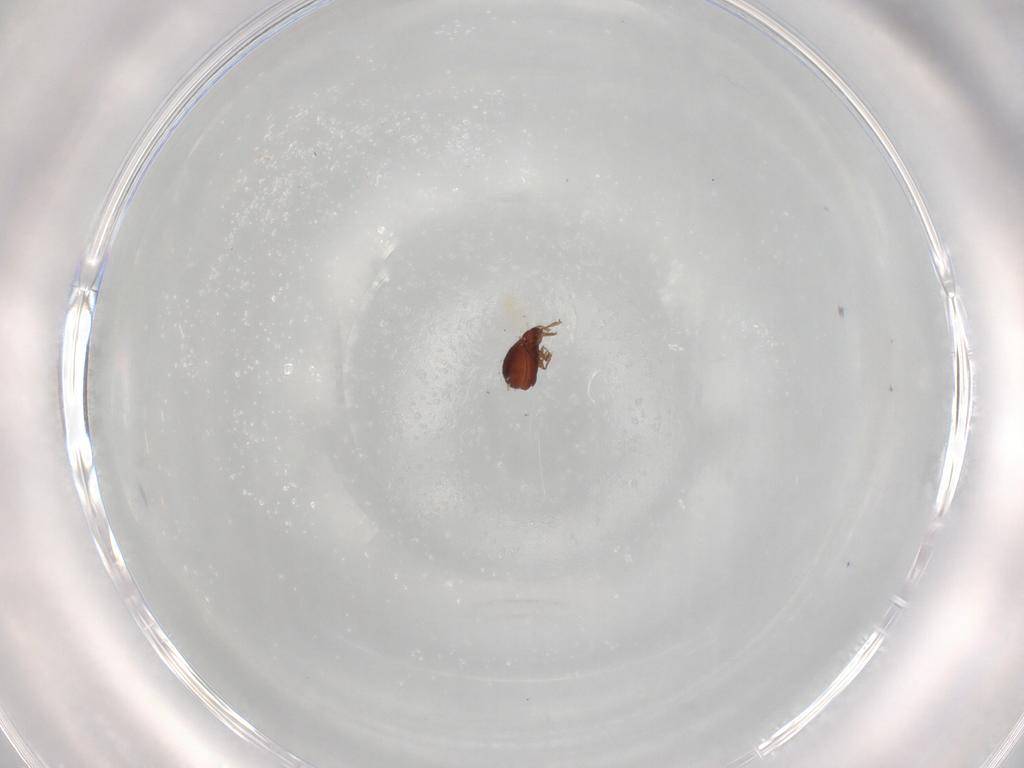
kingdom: Animalia
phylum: Arthropoda
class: Arachnida
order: Sarcoptiformes
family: Scheloribatidae
